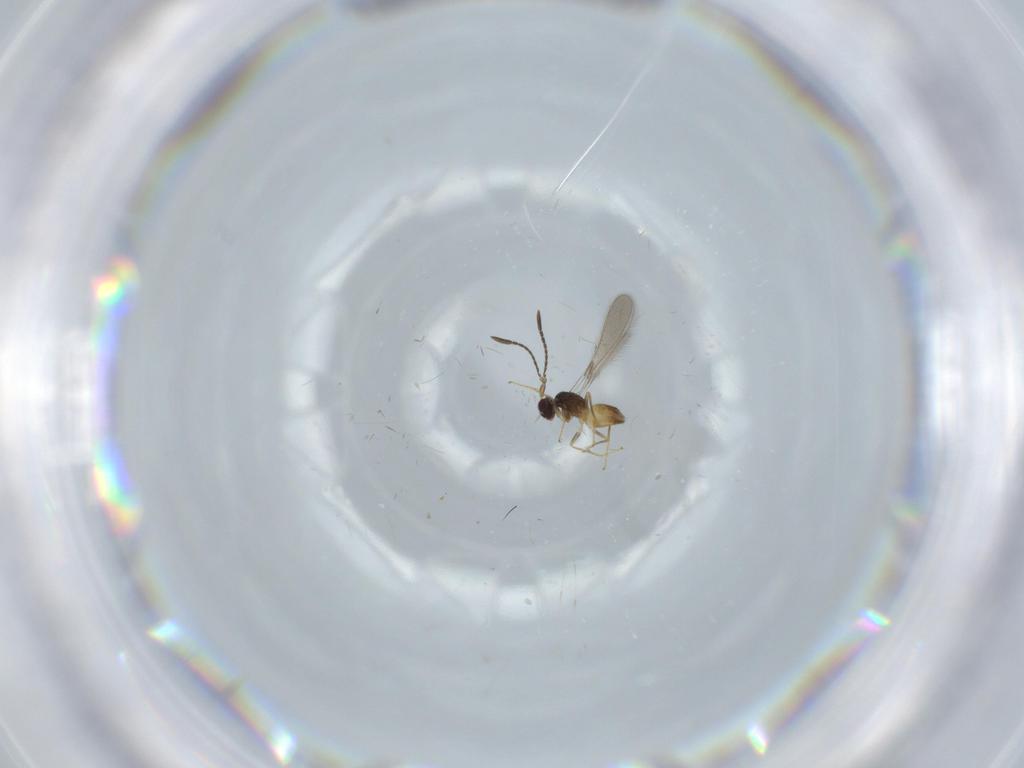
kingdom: Animalia
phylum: Arthropoda
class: Insecta
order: Hymenoptera
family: Mymaridae
